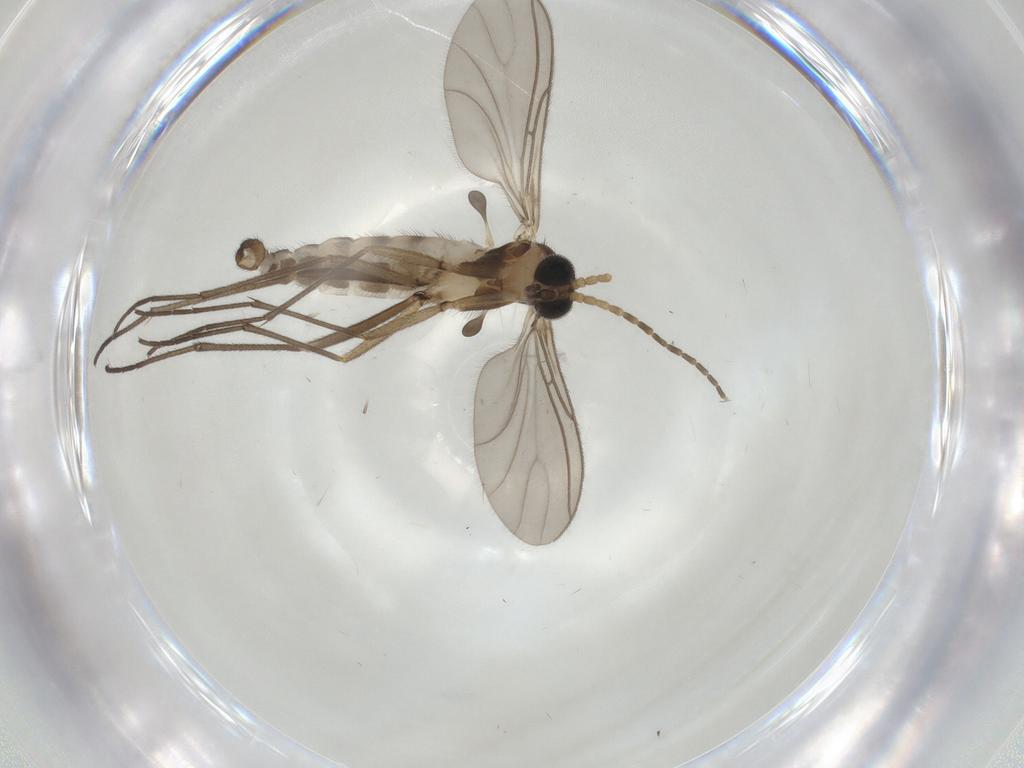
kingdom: Animalia
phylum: Arthropoda
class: Insecta
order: Diptera
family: Sciaridae
